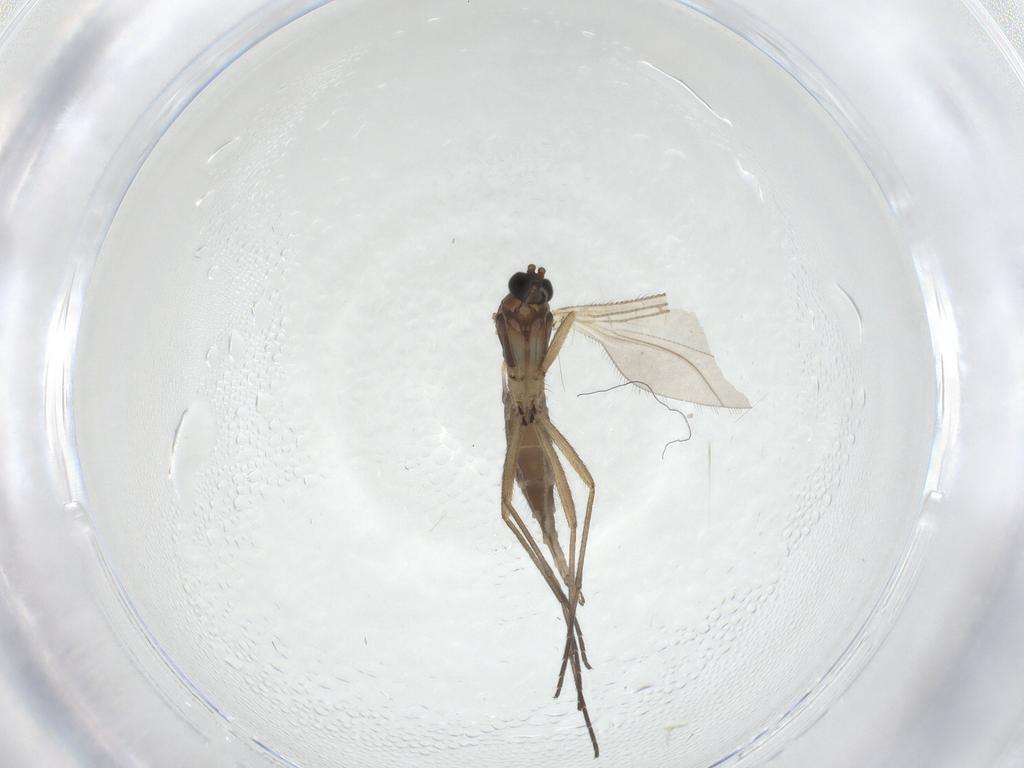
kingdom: Animalia
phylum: Arthropoda
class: Insecta
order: Diptera
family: Sciaridae
